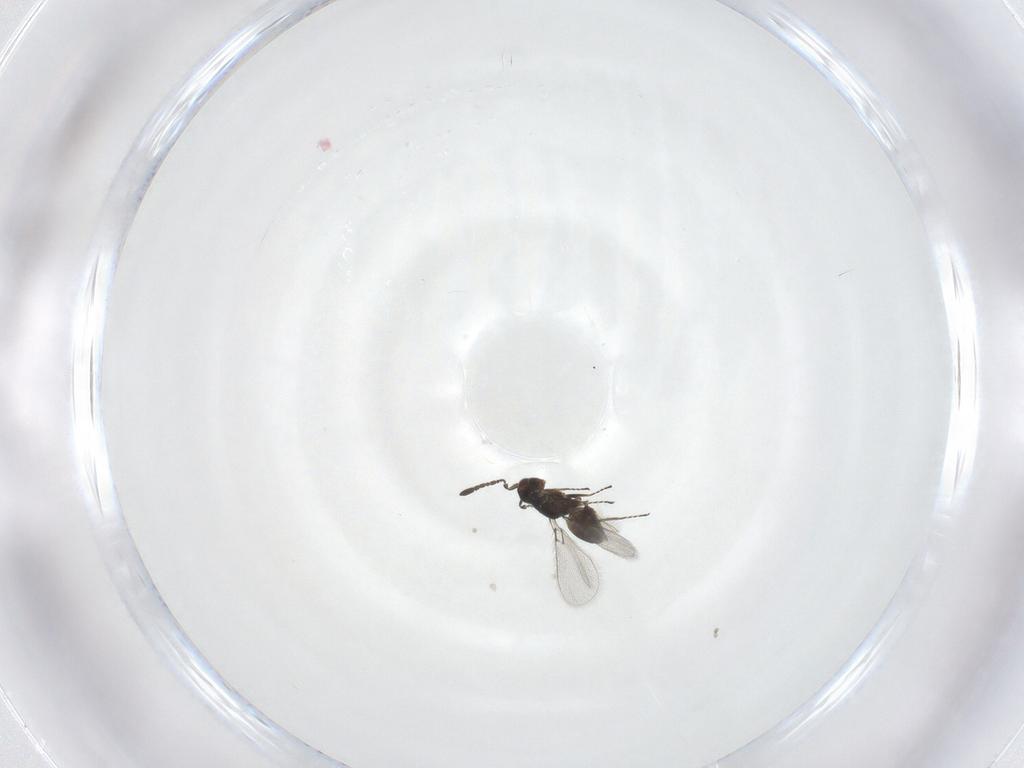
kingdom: Animalia
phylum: Arthropoda
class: Insecta
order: Hymenoptera
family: Mymaridae
